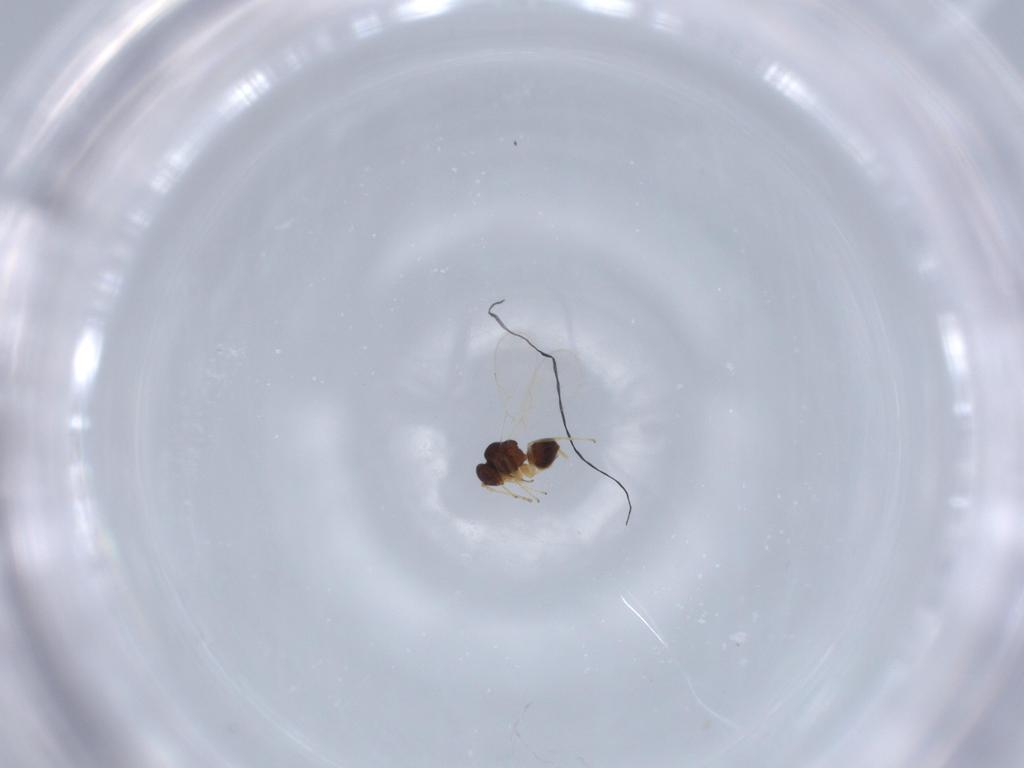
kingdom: Animalia
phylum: Arthropoda
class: Insecta
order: Hymenoptera
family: Figitidae
